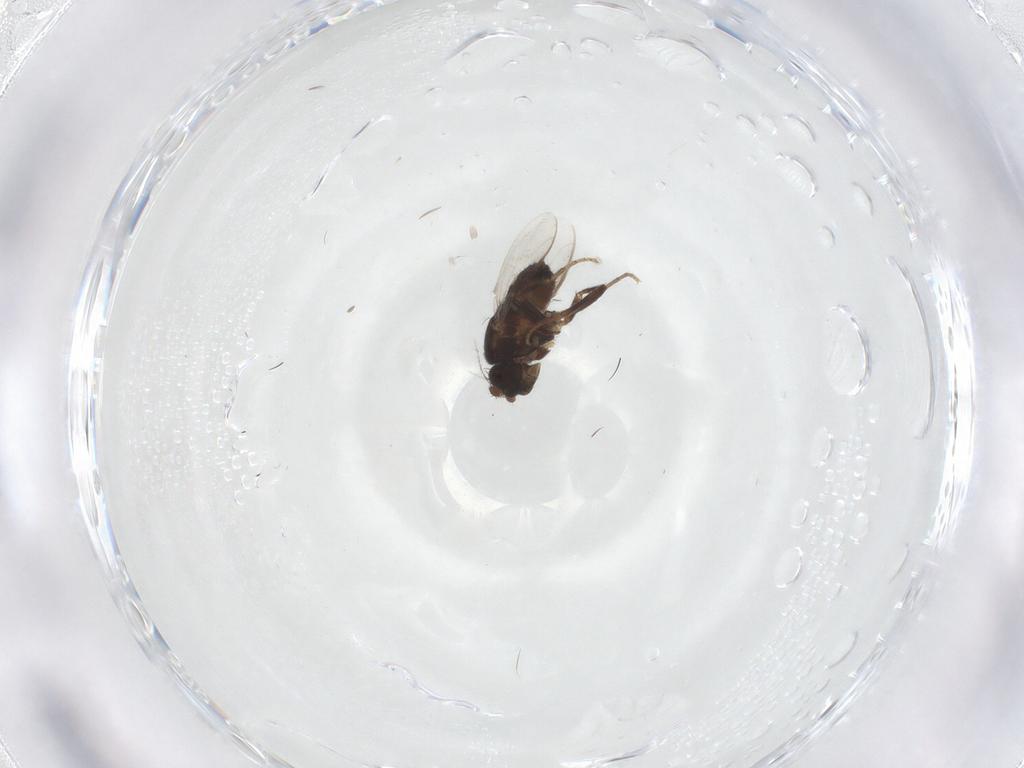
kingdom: Animalia
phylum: Arthropoda
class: Insecta
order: Diptera
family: Sphaeroceridae
